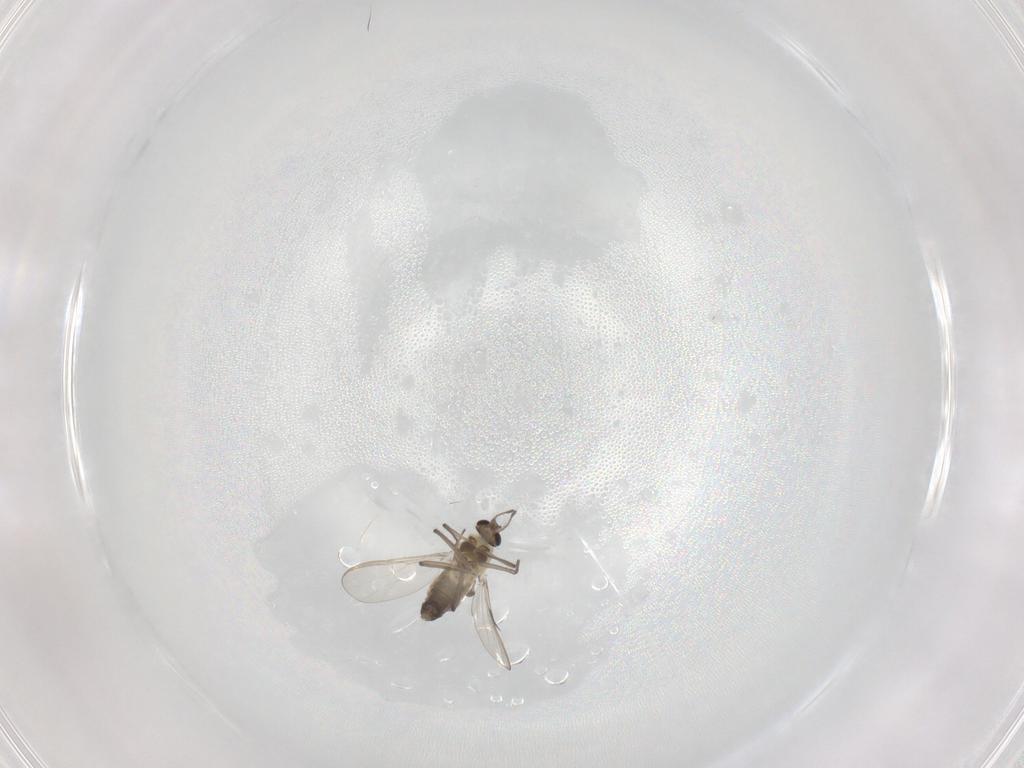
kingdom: Animalia
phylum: Arthropoda
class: Insecta
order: Diptera
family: Cecidomyiidae
